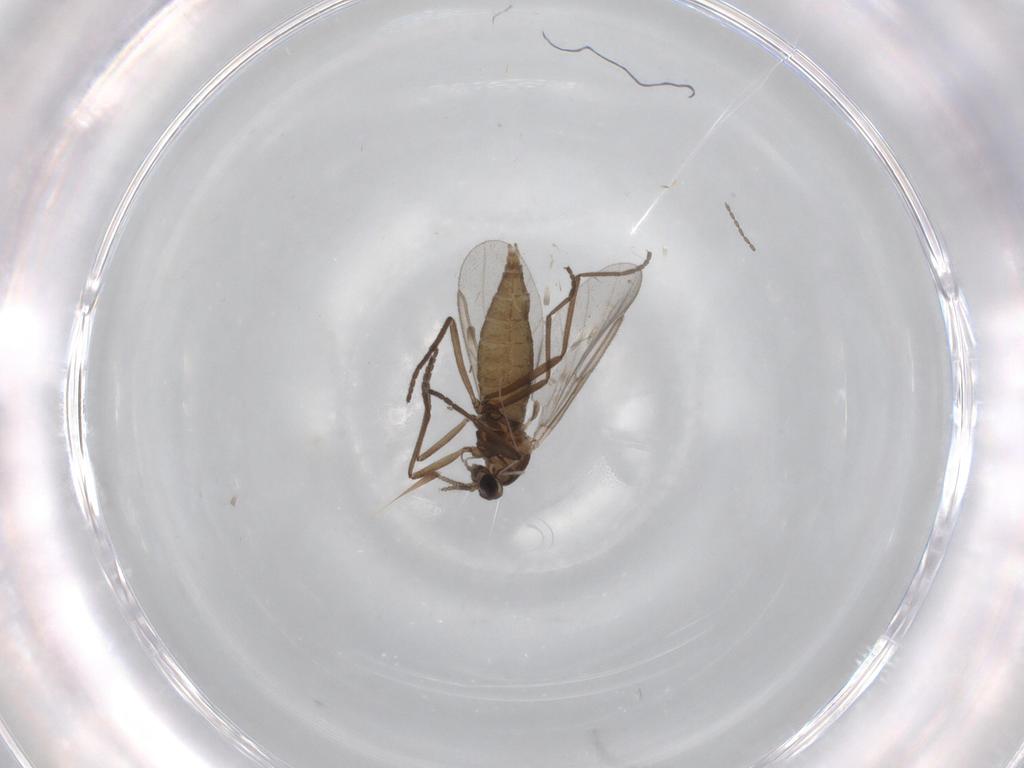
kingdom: Animalia
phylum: Arthropoda
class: Insecta
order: Diptera
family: Cecidomyiidae
